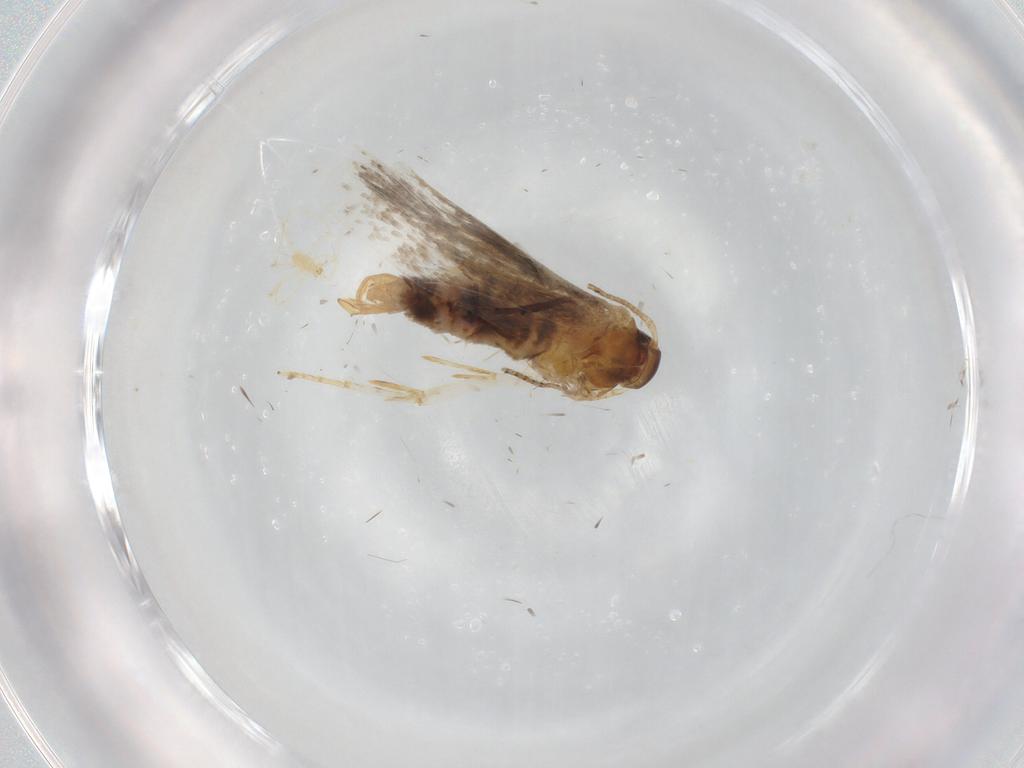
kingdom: Animalia
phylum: Arthropoda
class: Insecta
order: Lepidoptera
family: Oecophoridae
